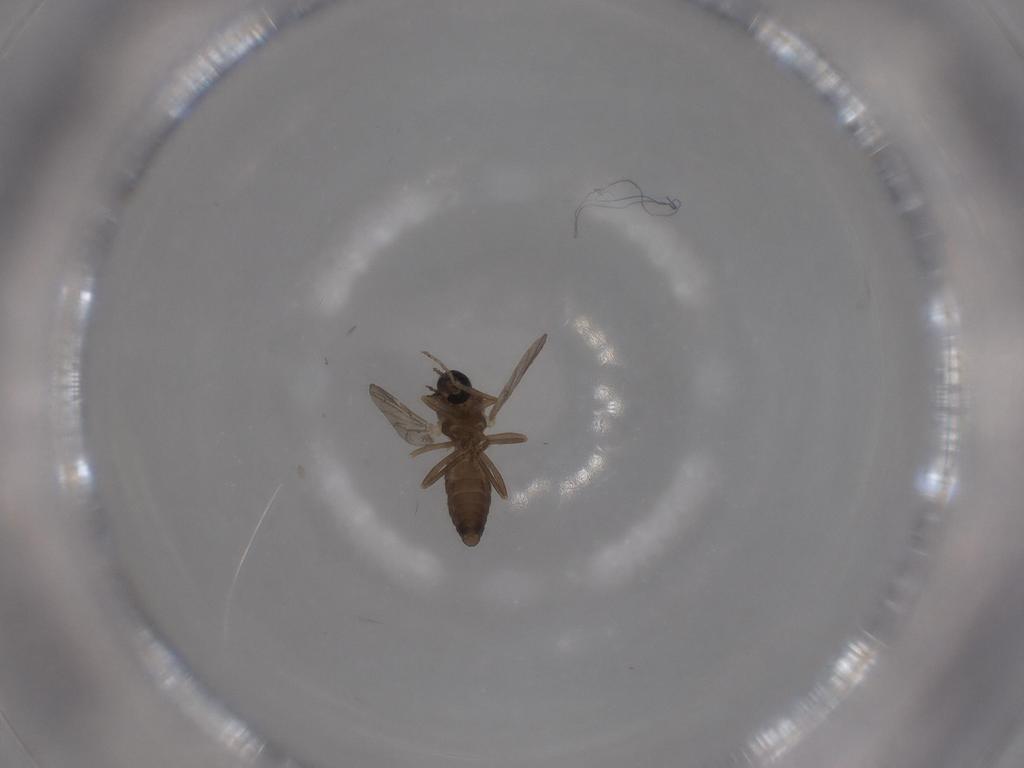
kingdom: Animalia
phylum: Arthropoda
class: Insecta
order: Diptera
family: Ceratopogonidae
